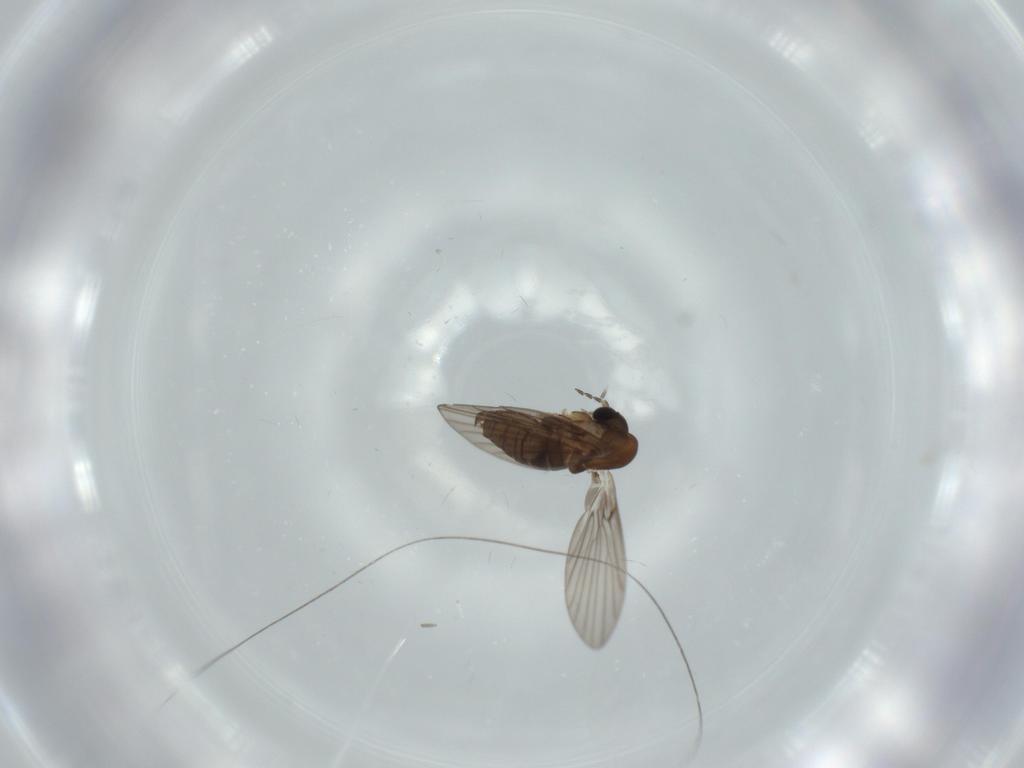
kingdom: Animalia
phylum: Arthropoda
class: Insecta
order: Diptera
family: Psychodidae
